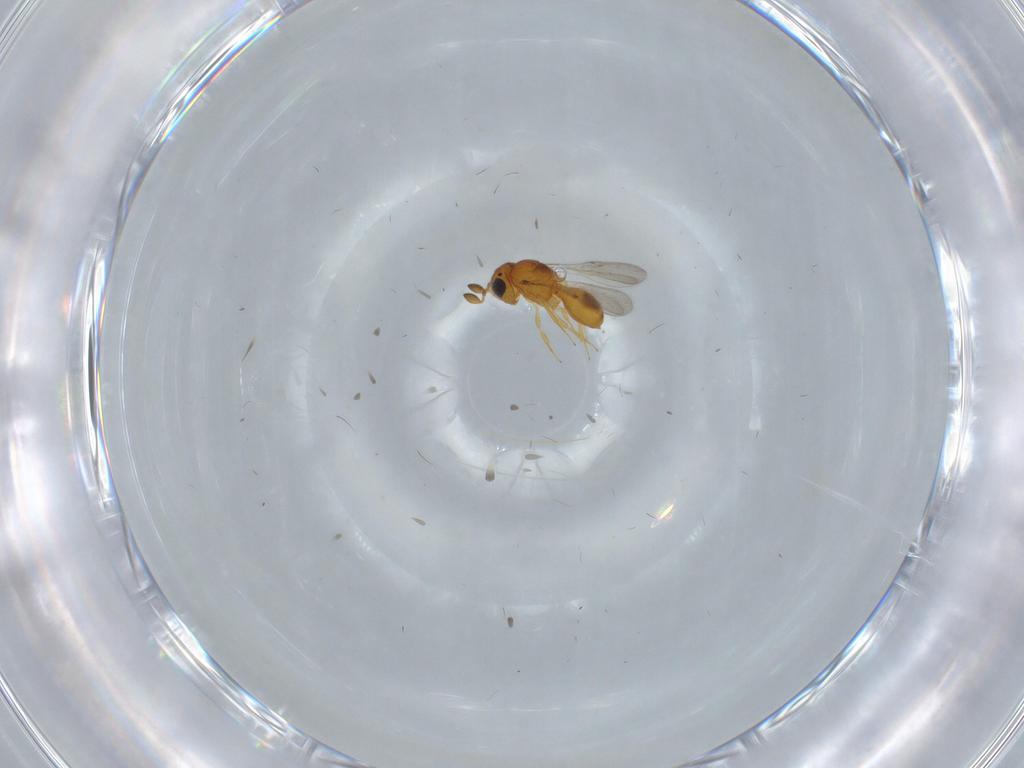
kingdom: Animalia
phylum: Arthropoda
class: Insecta
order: Hymenoptera
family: Scelionidae
